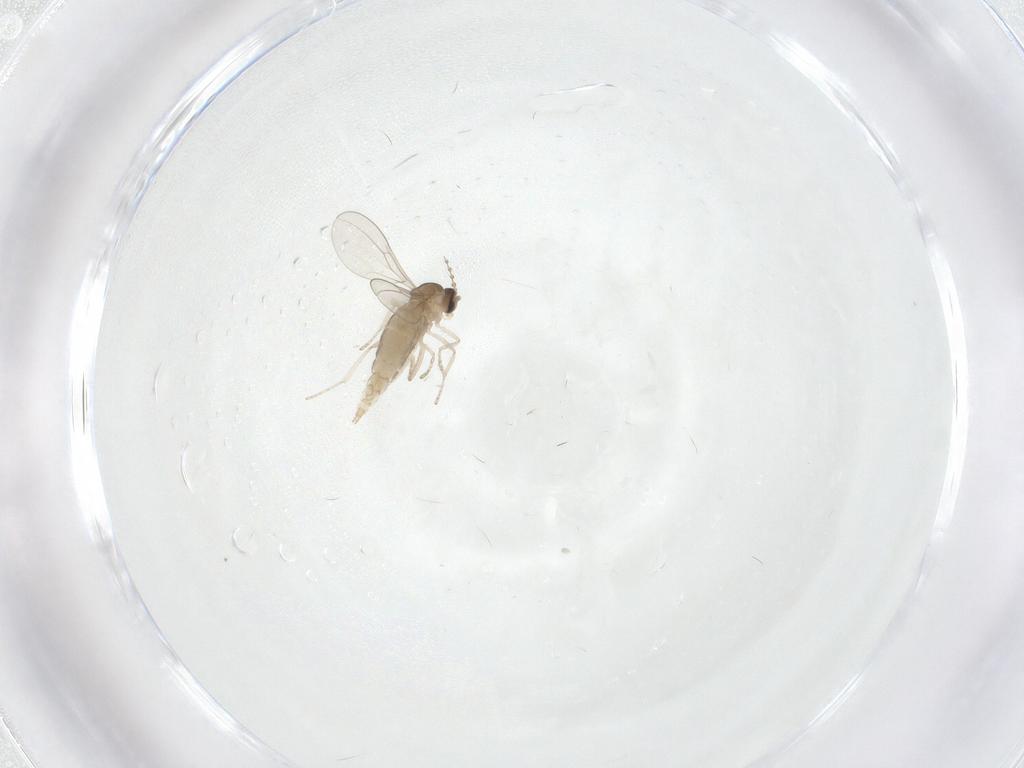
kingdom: Animalia
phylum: Arthropoda
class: Insecta
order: Diptera
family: Cecidomyiidae
